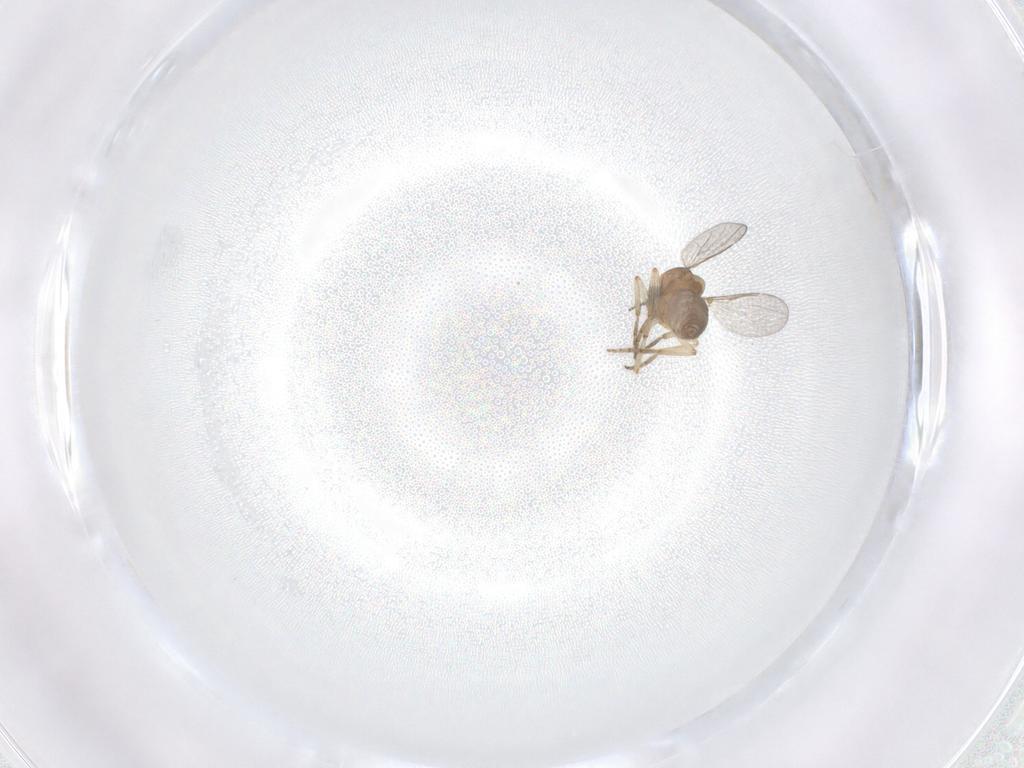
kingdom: Animalia
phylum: Arthropoda
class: Insecta
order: Diptera
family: Ceratopogonidae
